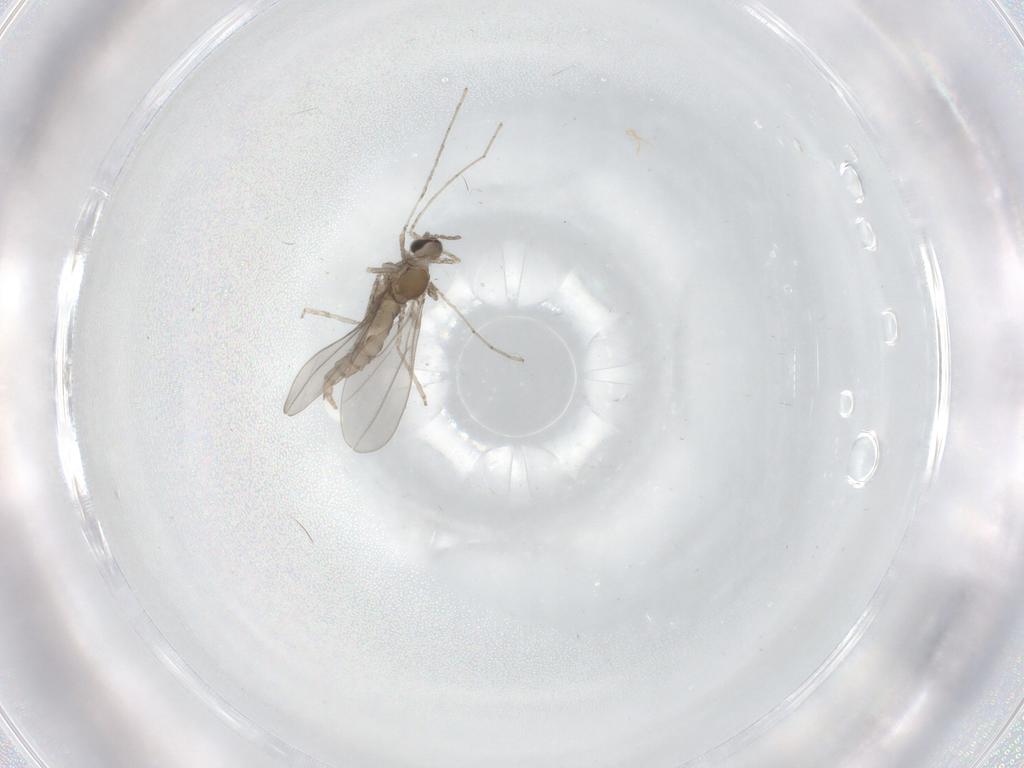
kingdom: Animalia
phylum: Arthropoda
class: Insecta
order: Diptera
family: Cecidomyiidae
